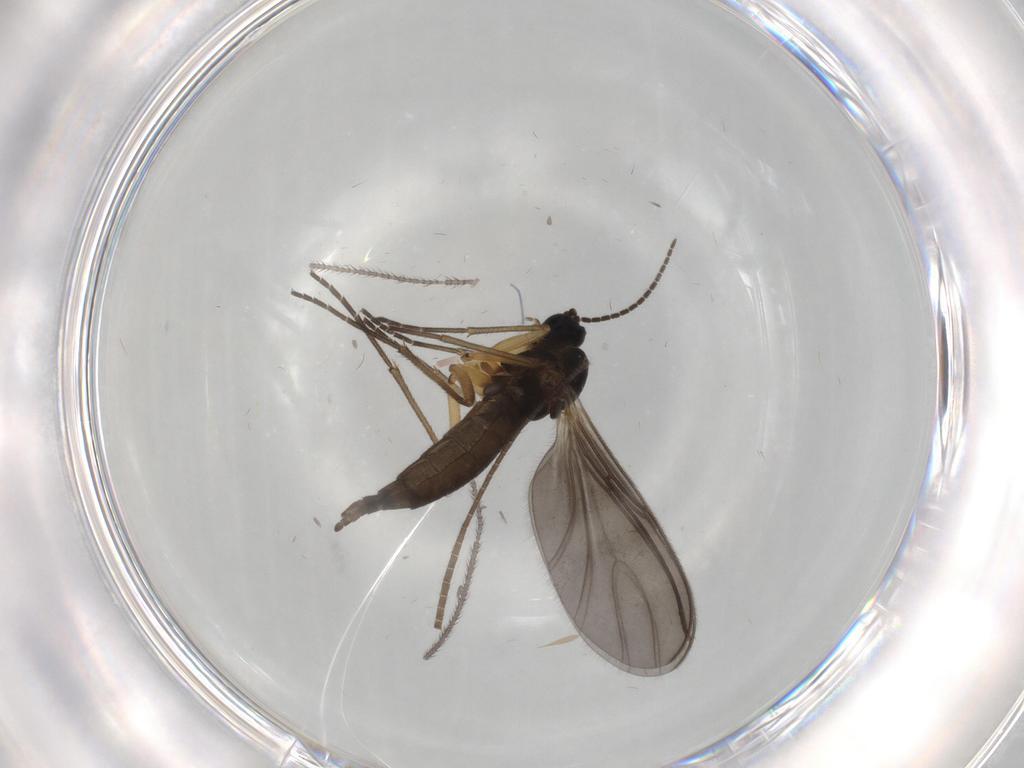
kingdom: Animalia
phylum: Arthropoda
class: Insecta
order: Diptera
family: Sciaridae
